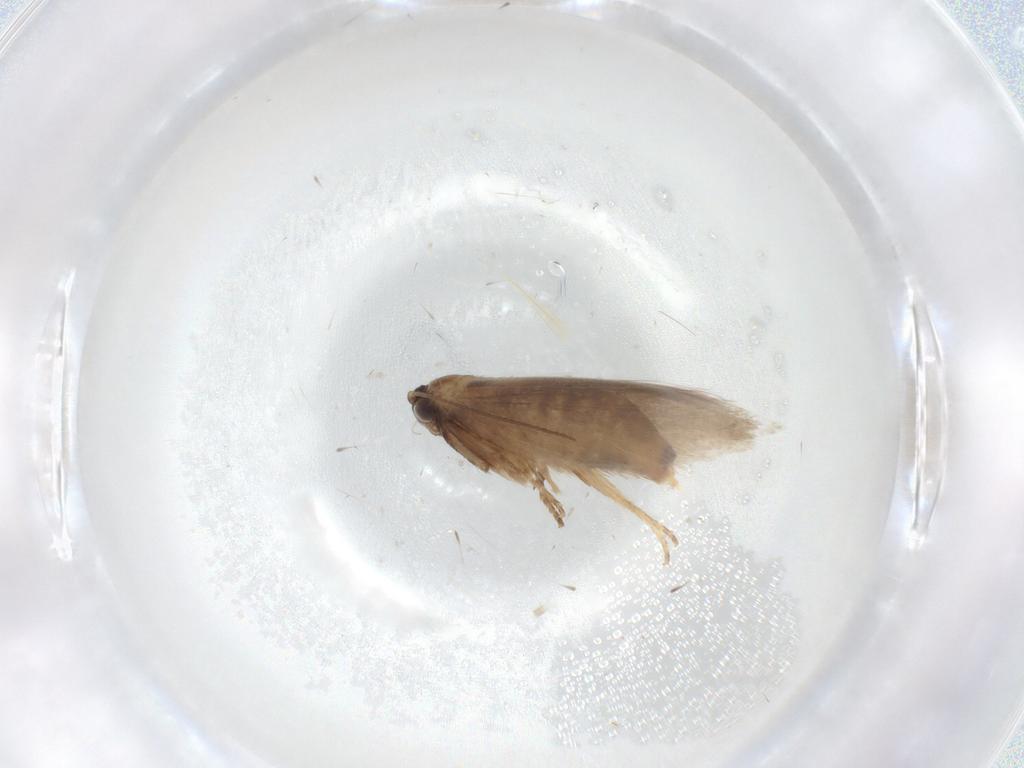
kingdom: Animalia
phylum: Arthropoda
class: Insecta
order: Lepidoptera
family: Nepticulidae
